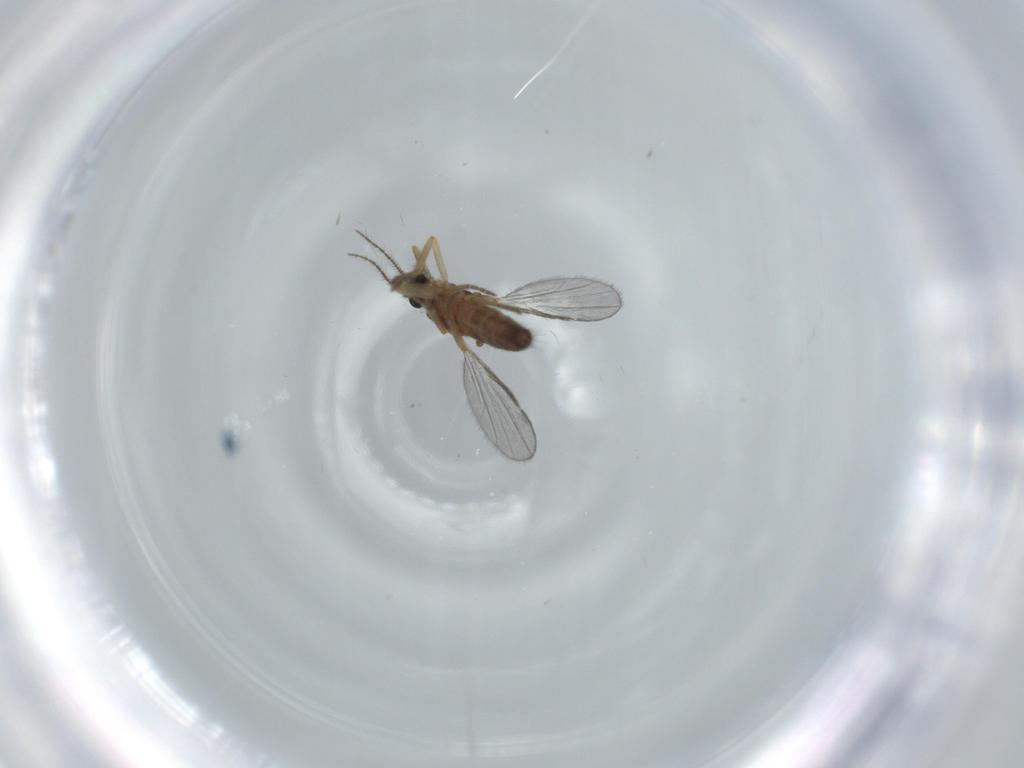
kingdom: Animalia
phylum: Arthropoda
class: Insecta
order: Diptera
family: Ceratopogonidae
